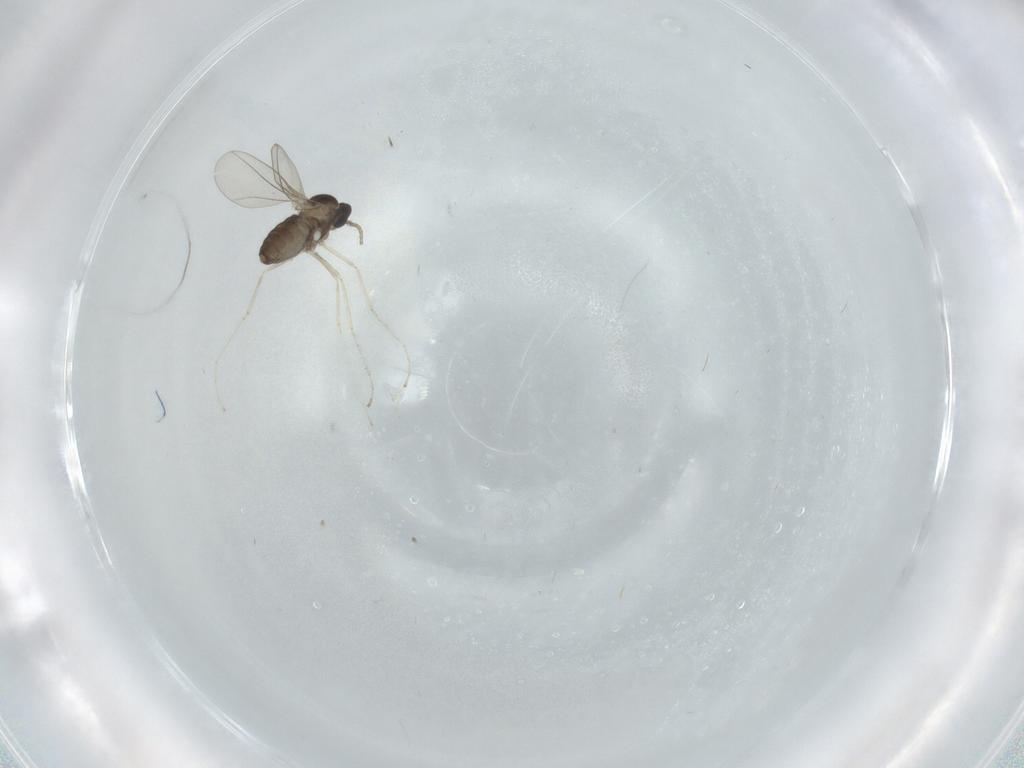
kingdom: Animalia
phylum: Arthropoda
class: Insecta
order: Diptera
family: Cecidomyiidae
